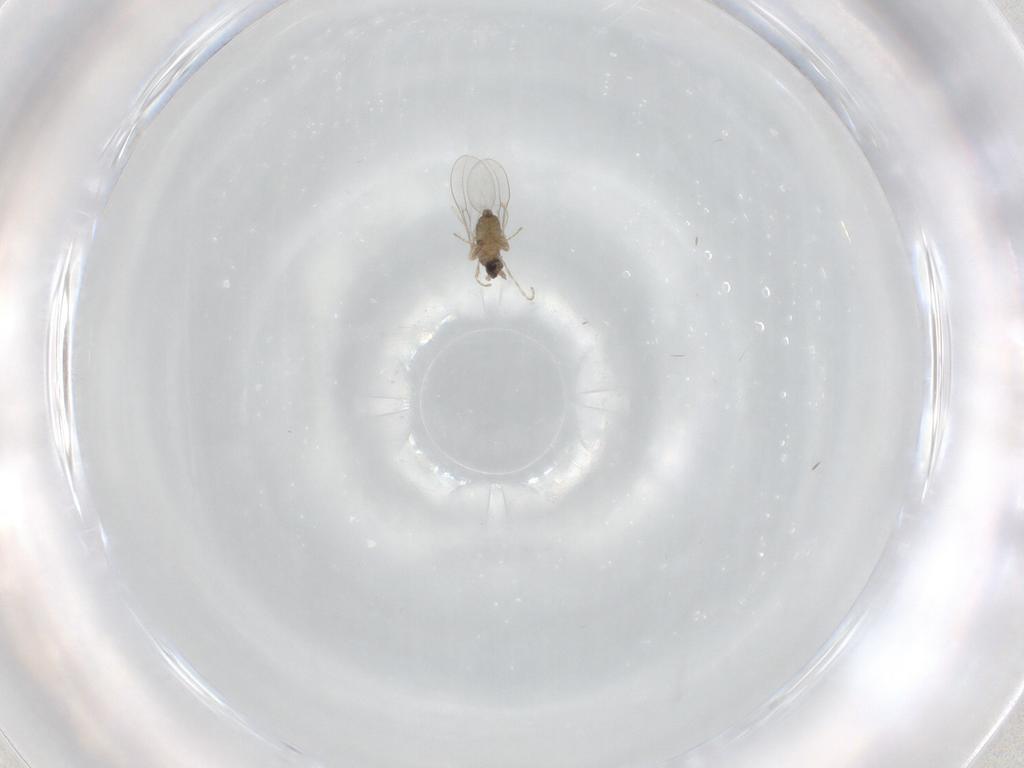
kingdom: Animalia
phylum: Arthropoda
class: Insecta
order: Diptera
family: Cecidomyiidae
